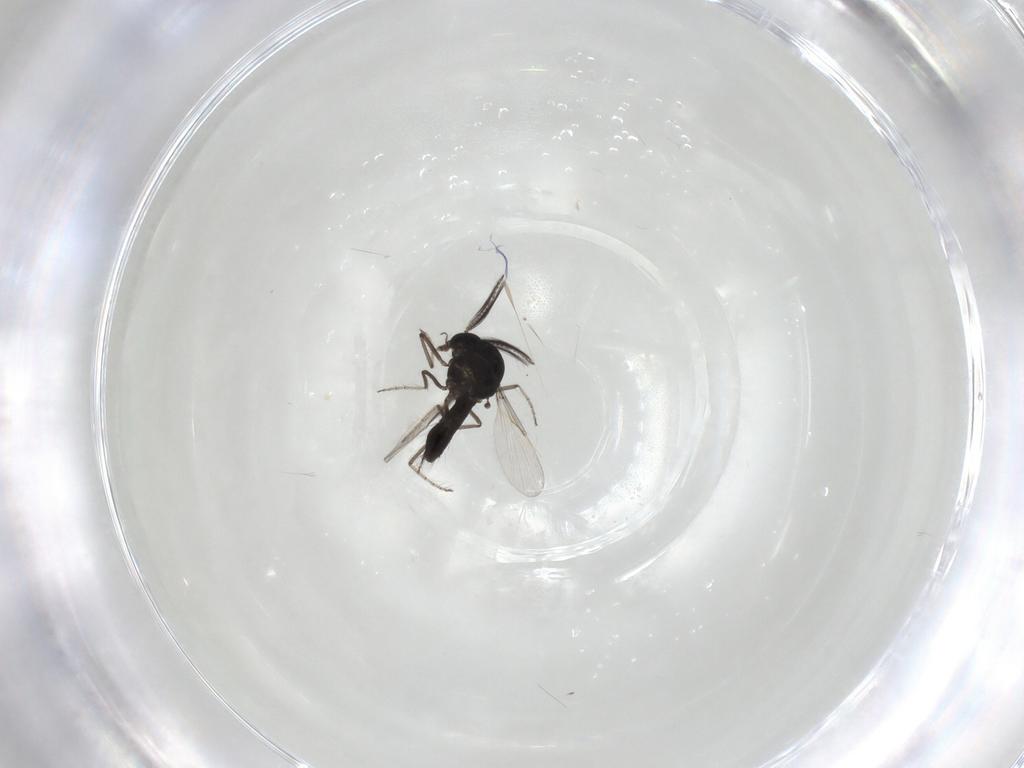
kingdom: Animalia
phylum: Arthropoda
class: Insecta
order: Diptera
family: Ceratopogonidae
